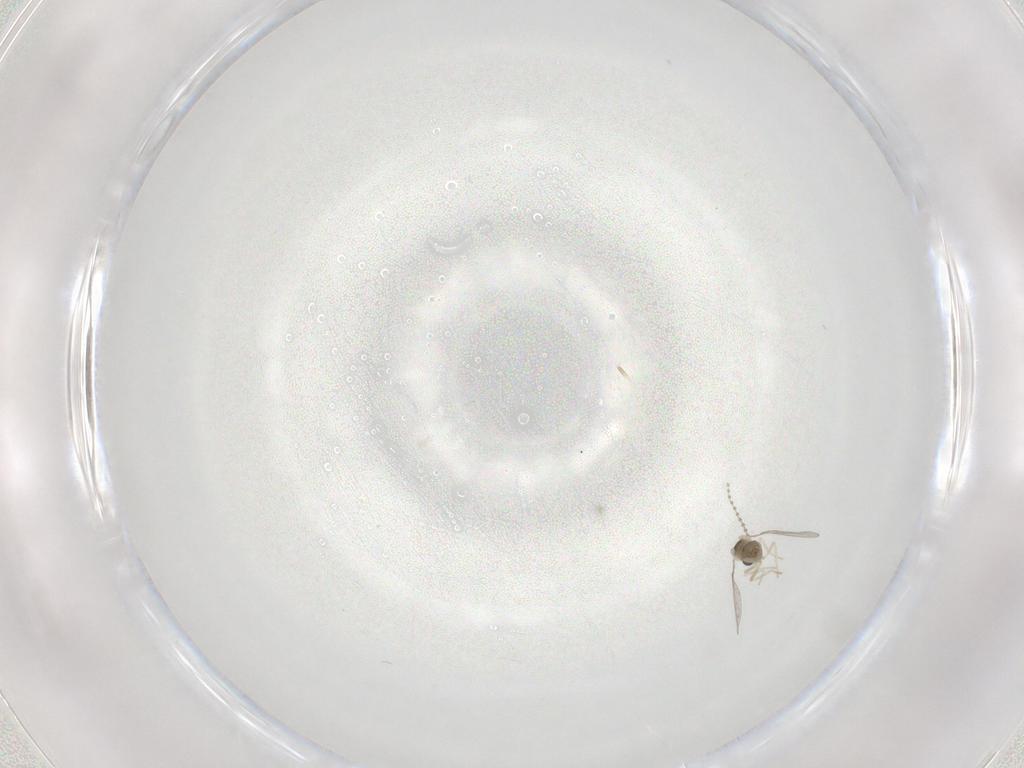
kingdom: Animalia
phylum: Arthropoda
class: Insecta
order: Diptera
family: Cecidomyiidae
